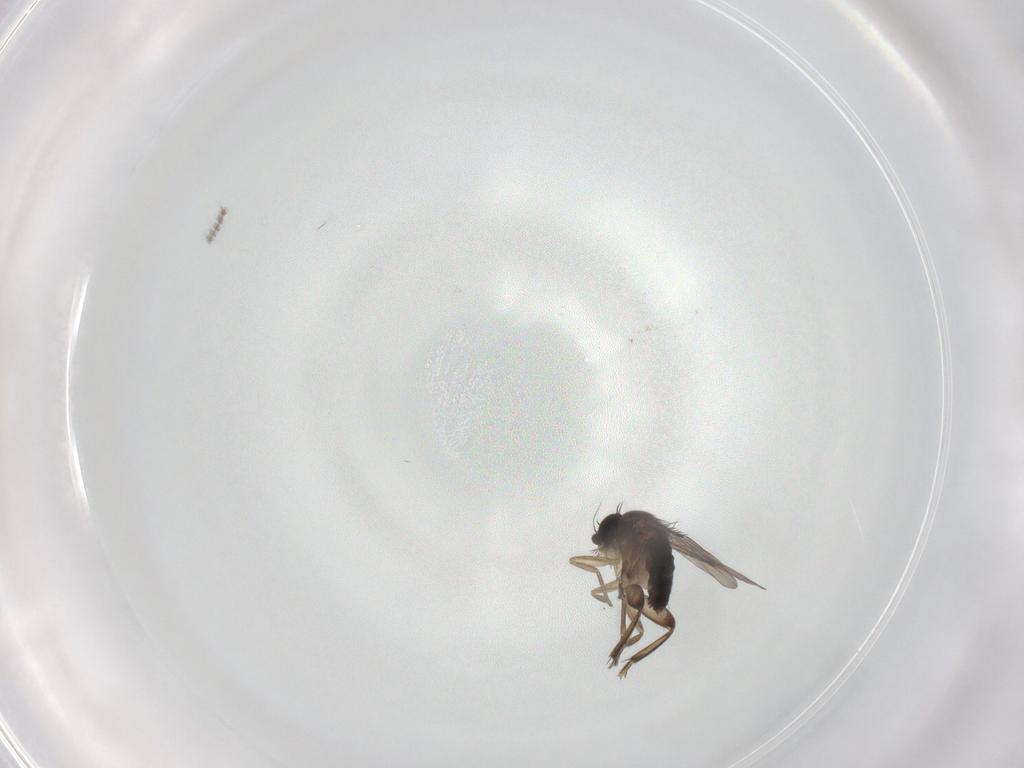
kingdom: Animalia
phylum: Arthropoda
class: Insecta
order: Diptera
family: Phoridae
